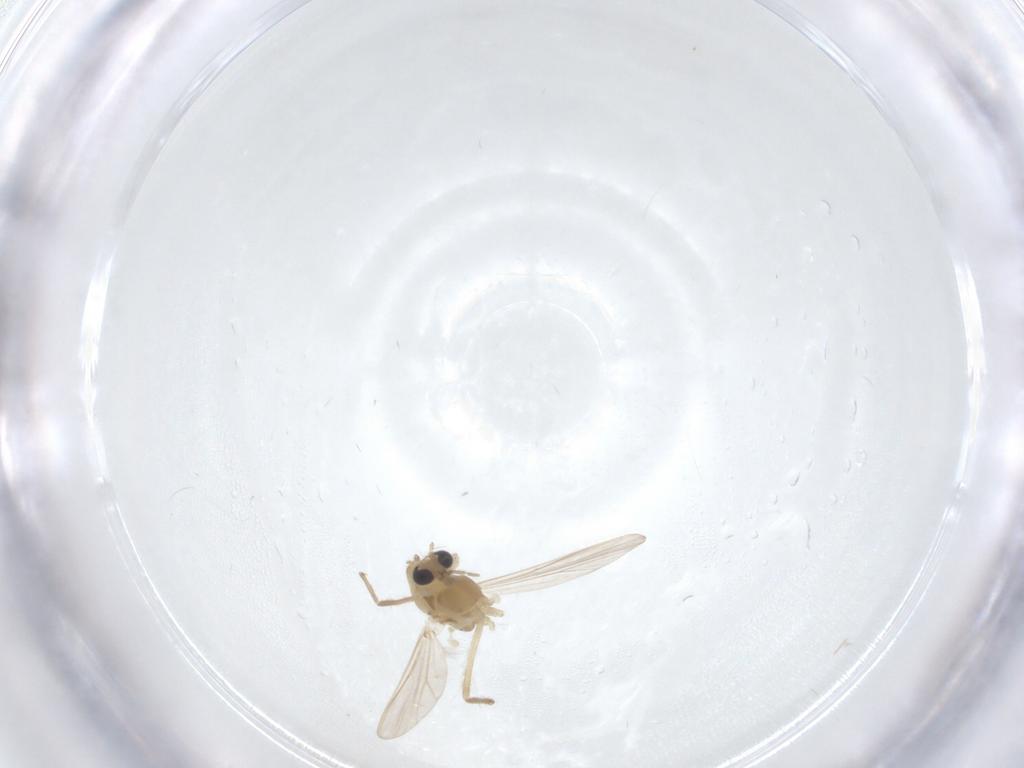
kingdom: Animalia
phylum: Arthropoda
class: Insecta
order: Diptera
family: Chironomidae
